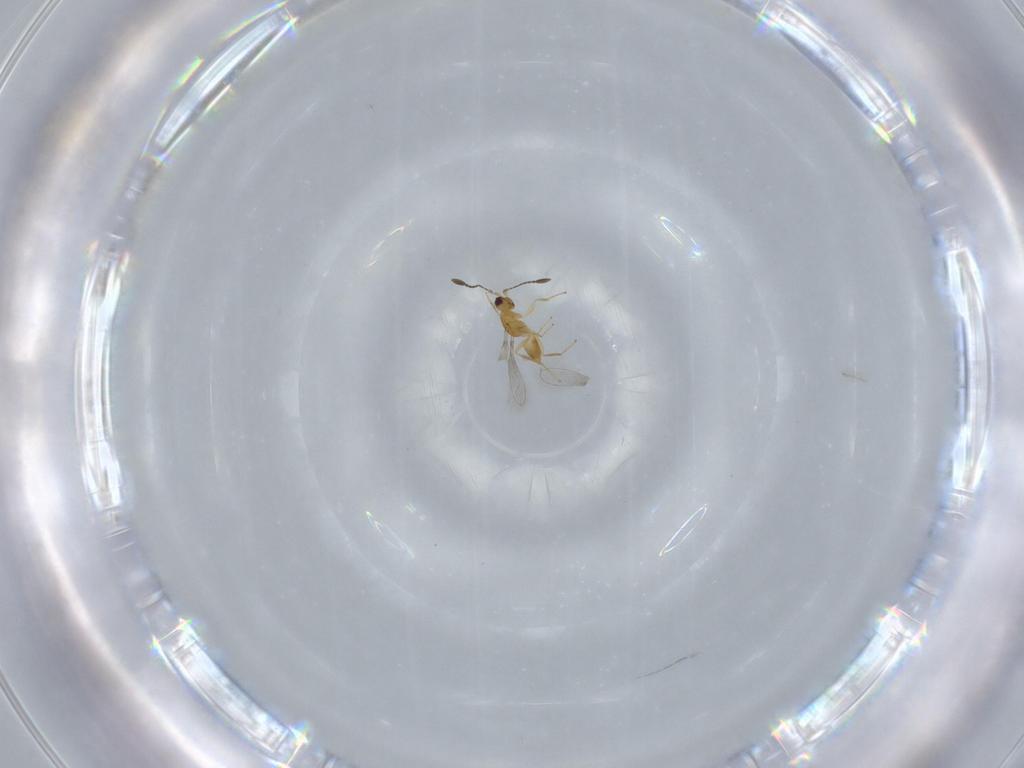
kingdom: Animalia
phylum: Arthropoda
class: Insecta
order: Hymenoptera
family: Mymaridae
